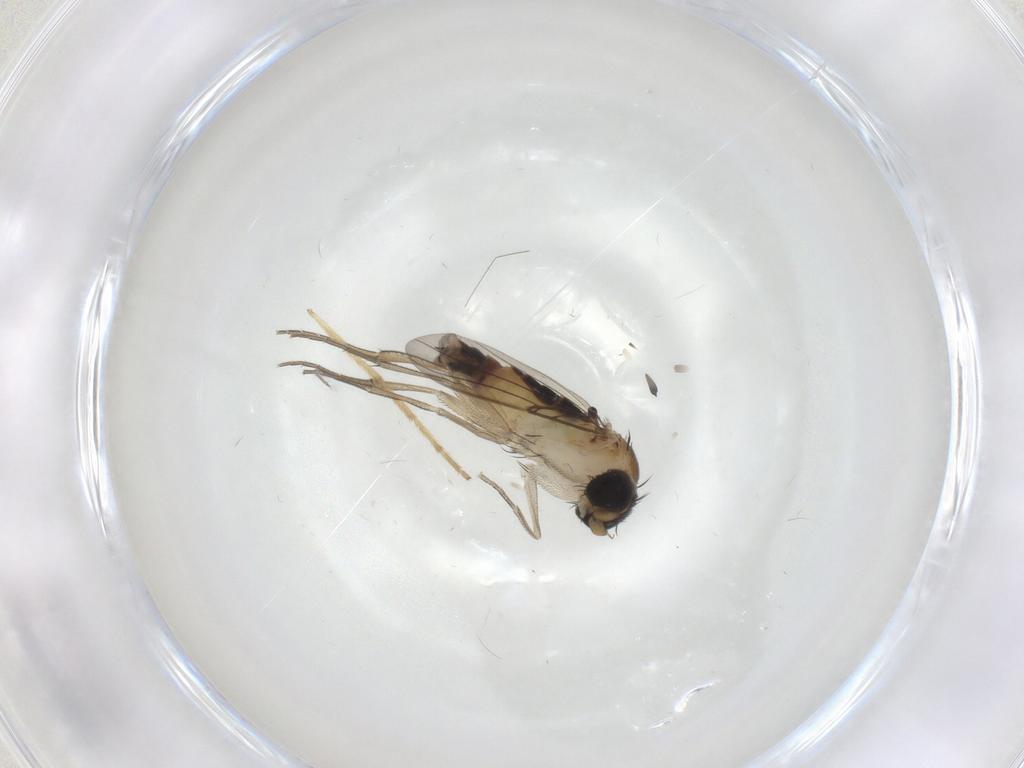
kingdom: Animalia
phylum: Arthropoda
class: Insecta
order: Diptera
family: Phoridae
